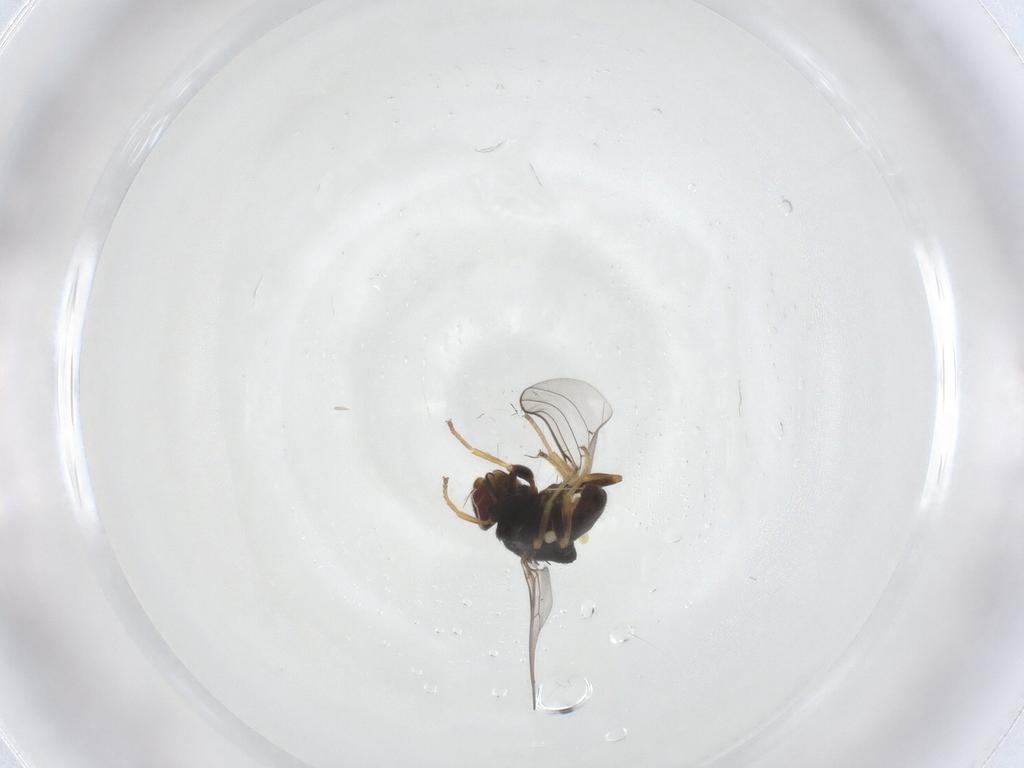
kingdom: Animalia
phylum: Arthropoda
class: Insecta
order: Diptera
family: Chloropidae
